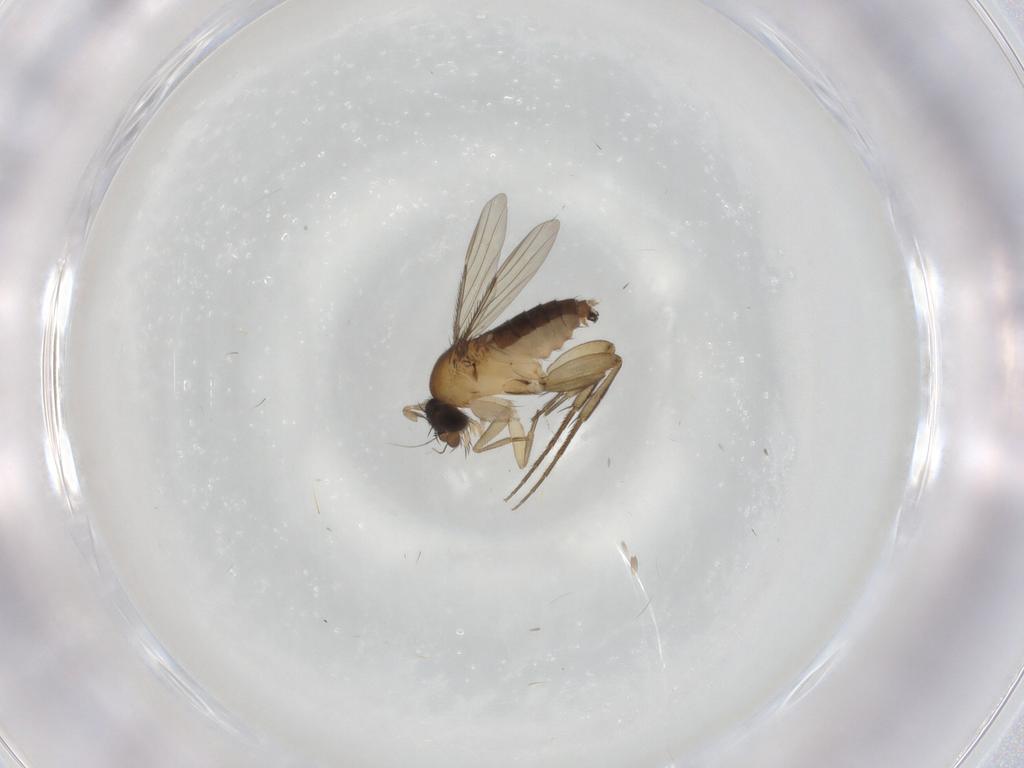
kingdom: Animalia
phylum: Arthropoda
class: Insecta
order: Diptera
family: Phoridae
